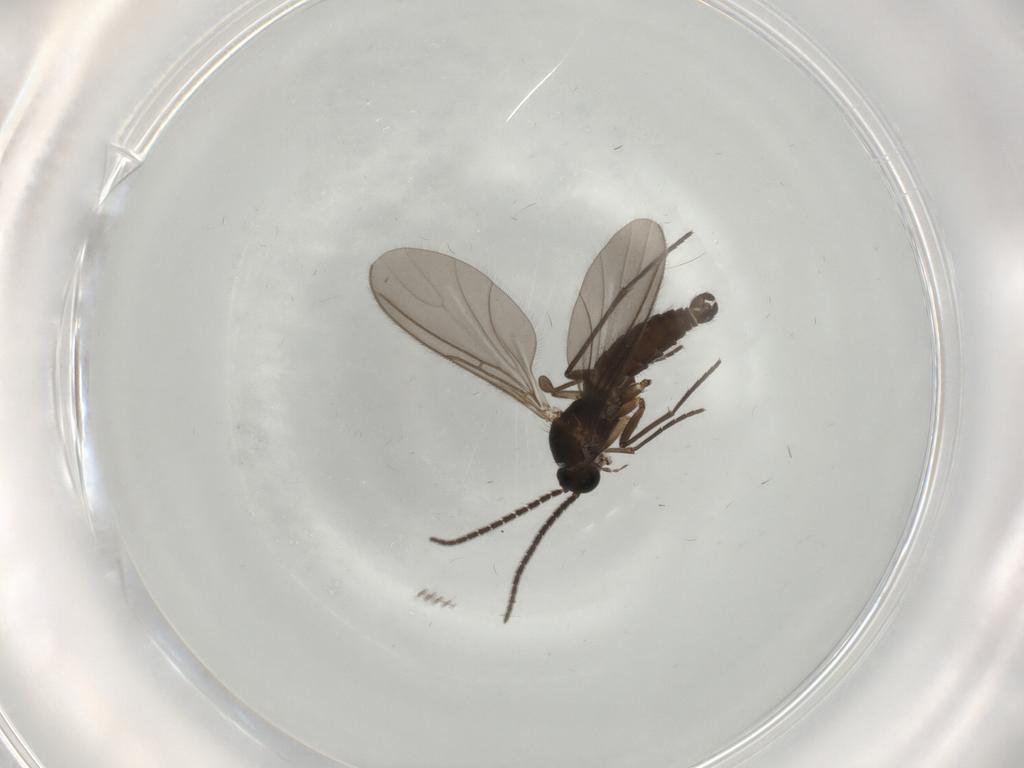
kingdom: Animalia
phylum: Arthropoda
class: Insecta
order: Diptera
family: Cecidomyiidae
